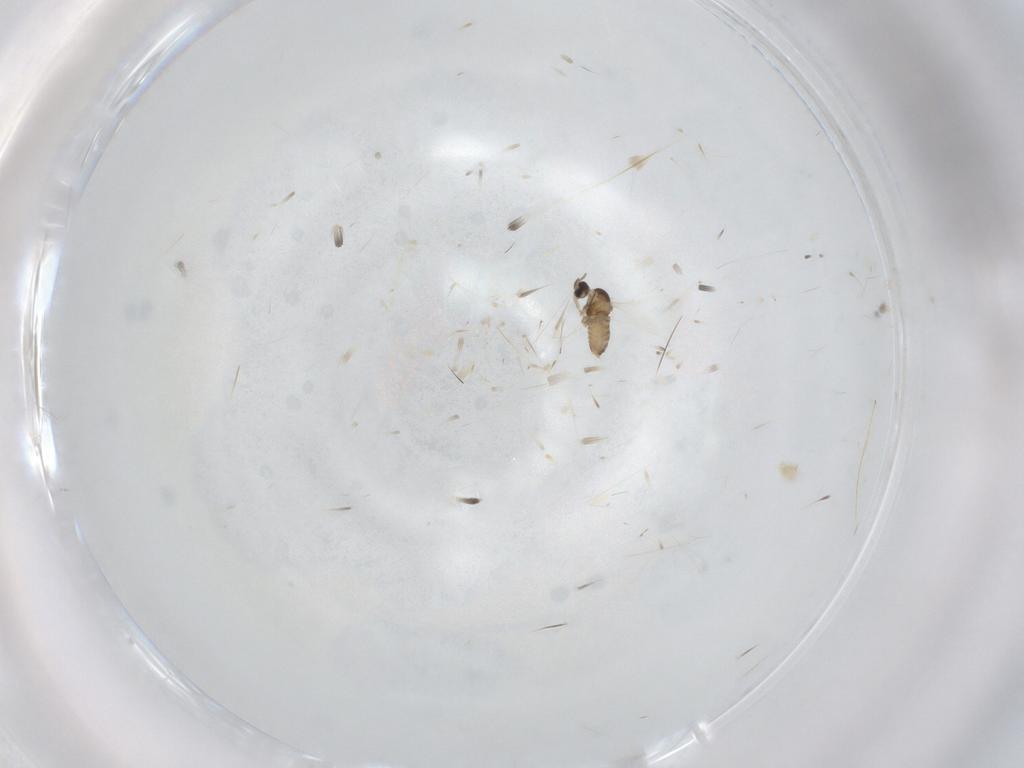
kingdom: Animalia
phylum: Arthropoda
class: Insecta
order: Diptera
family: Cecidomyiidae
